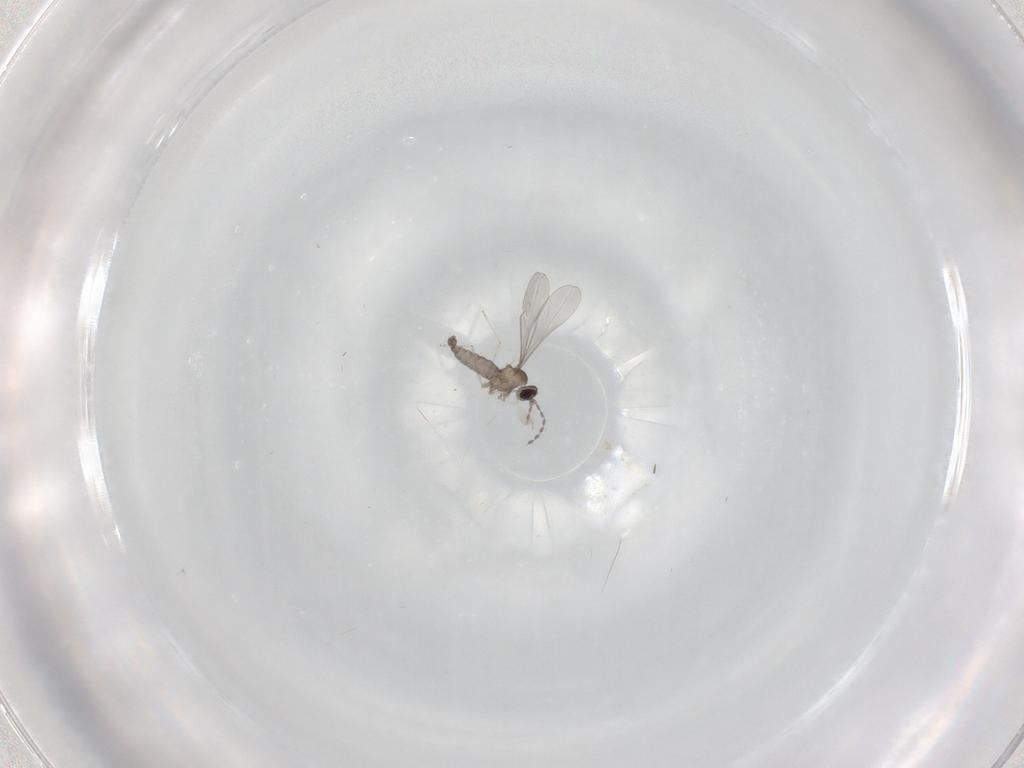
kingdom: Animalia
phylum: Arthropoda
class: Insecta
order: Diptera
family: Cecidomyiidae
